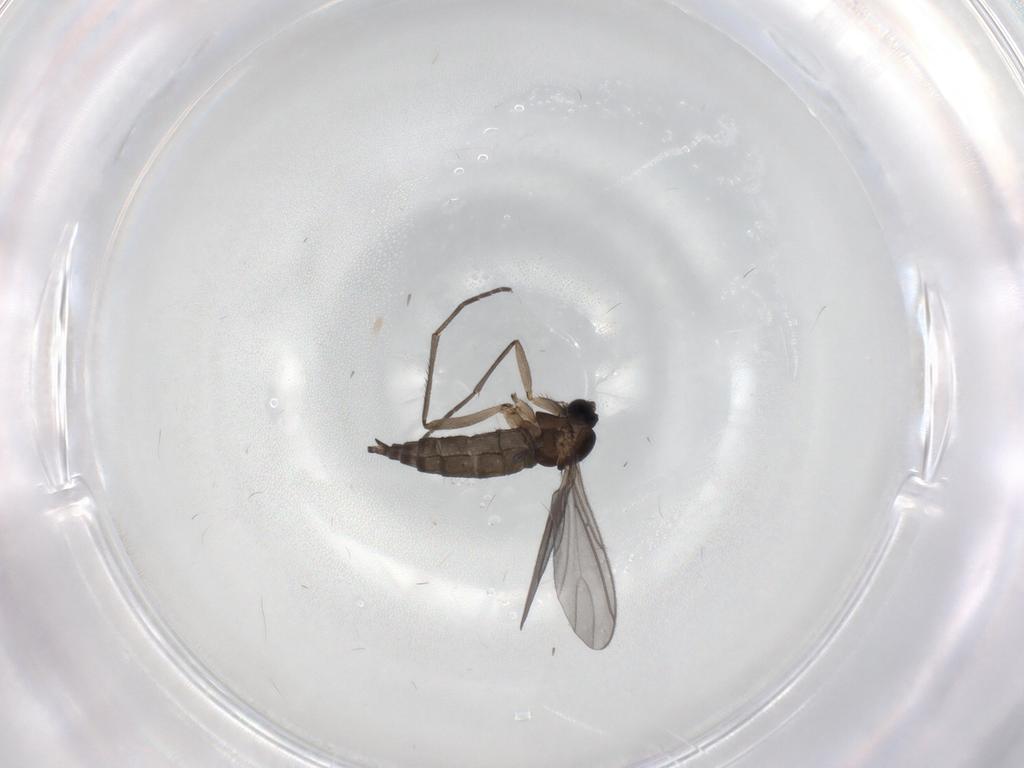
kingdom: Animalia
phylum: Arthropoda
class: Insecta
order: Diptera
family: Sciaridae
